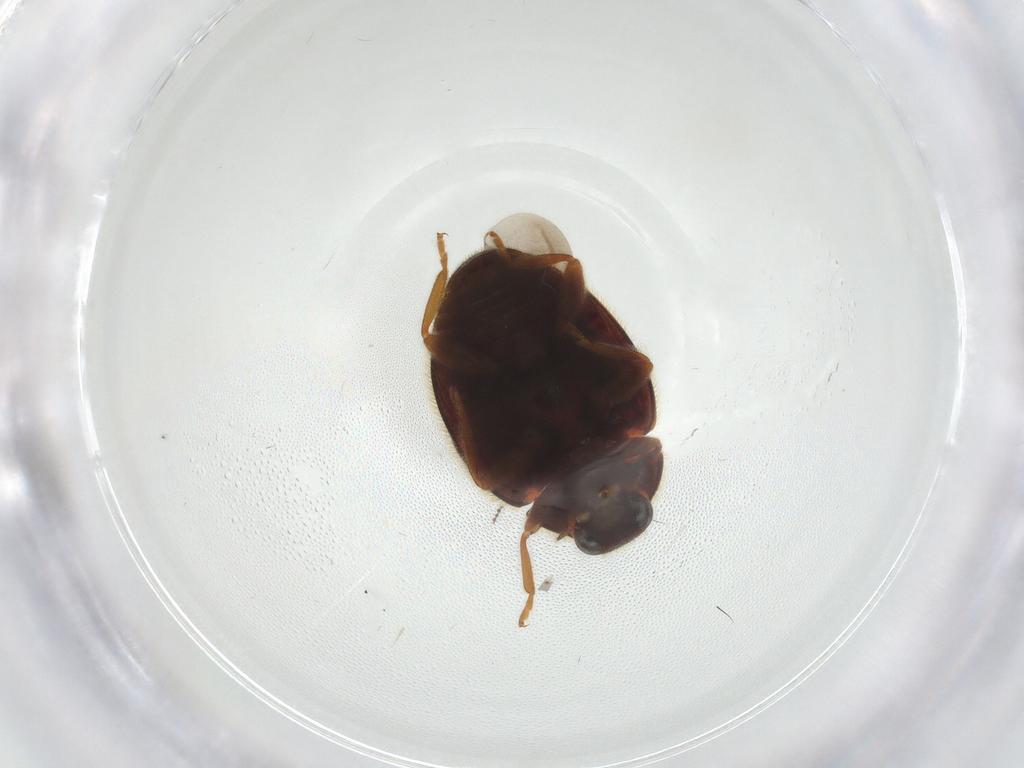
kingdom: Animalia
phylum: Arthropoda
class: Insecta
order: Coleoptera
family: Coccinellidae
